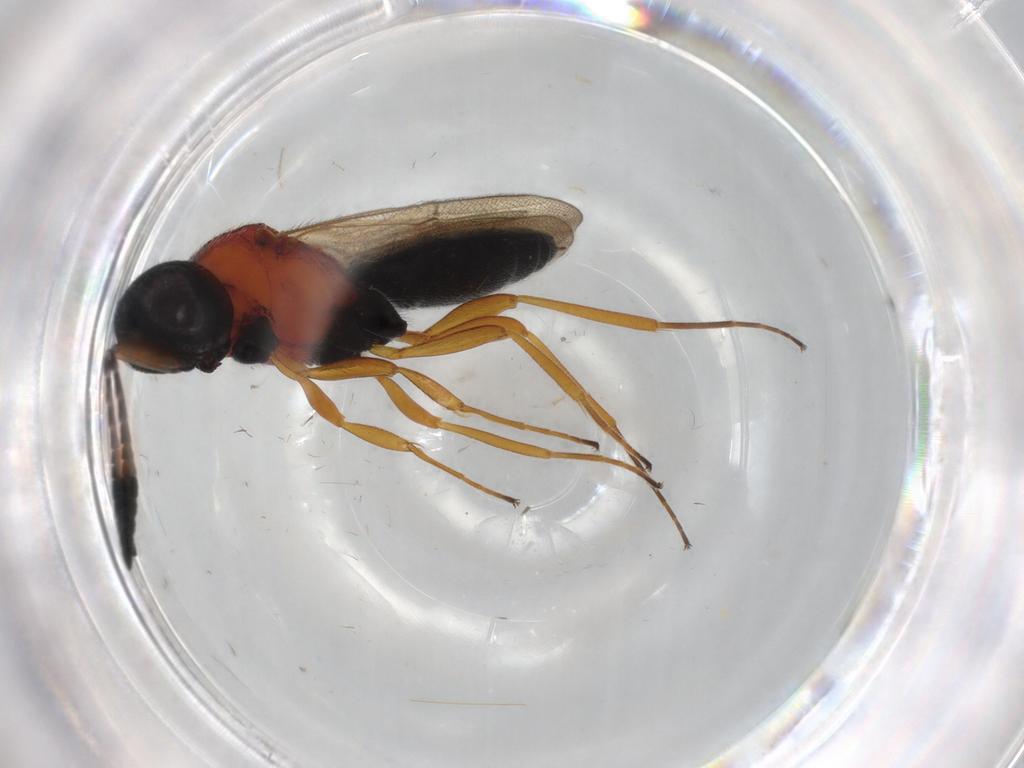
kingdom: Animalia
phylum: Arthropoda
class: Insecta
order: Hymenoptera
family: Scelionidae
